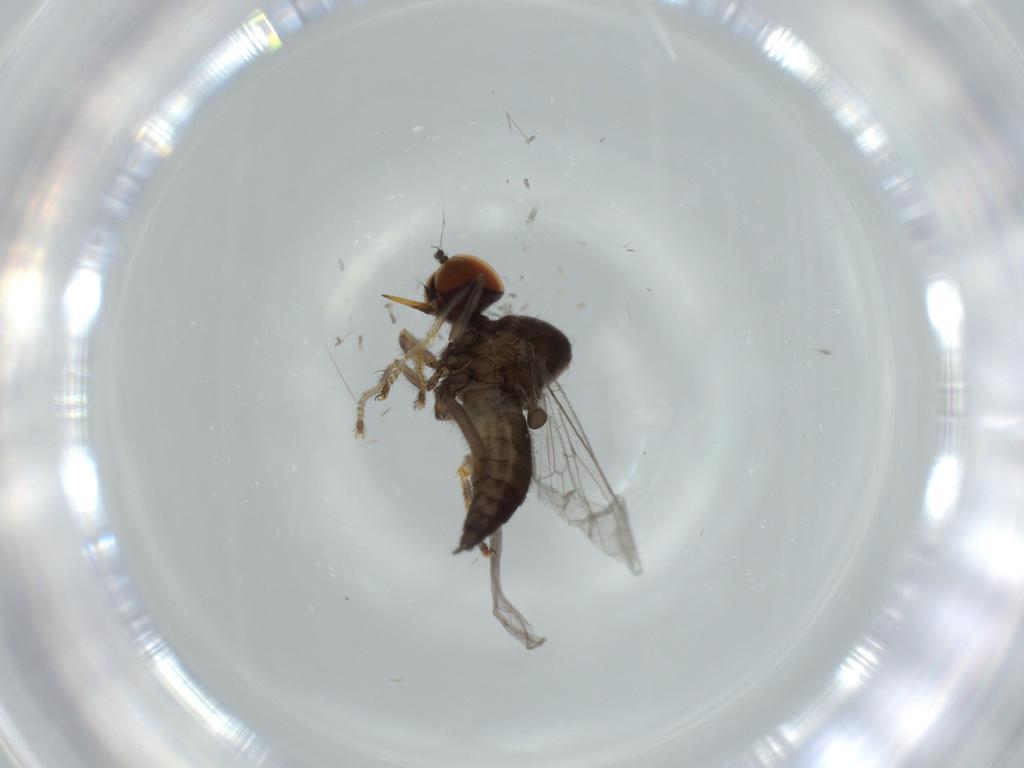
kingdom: Animalia
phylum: Arthropoda
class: Insecta
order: Diptera
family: Hybotidae
